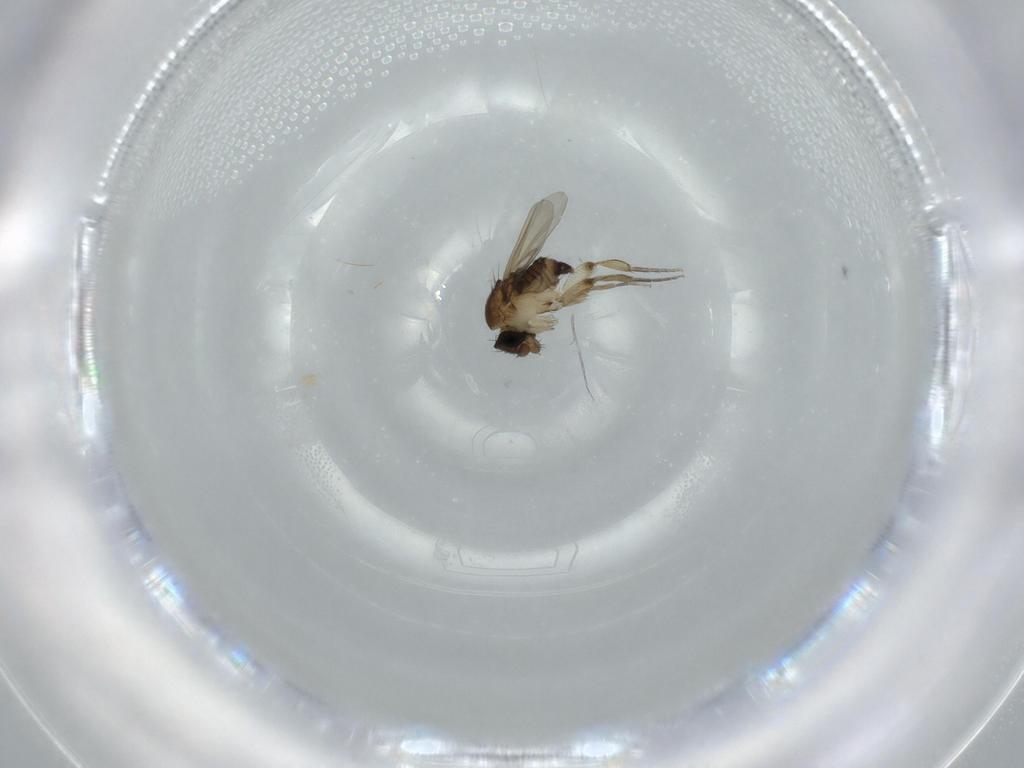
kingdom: Animalia
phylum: Arthropoda
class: Insecta
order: Diptera
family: Phoridae
